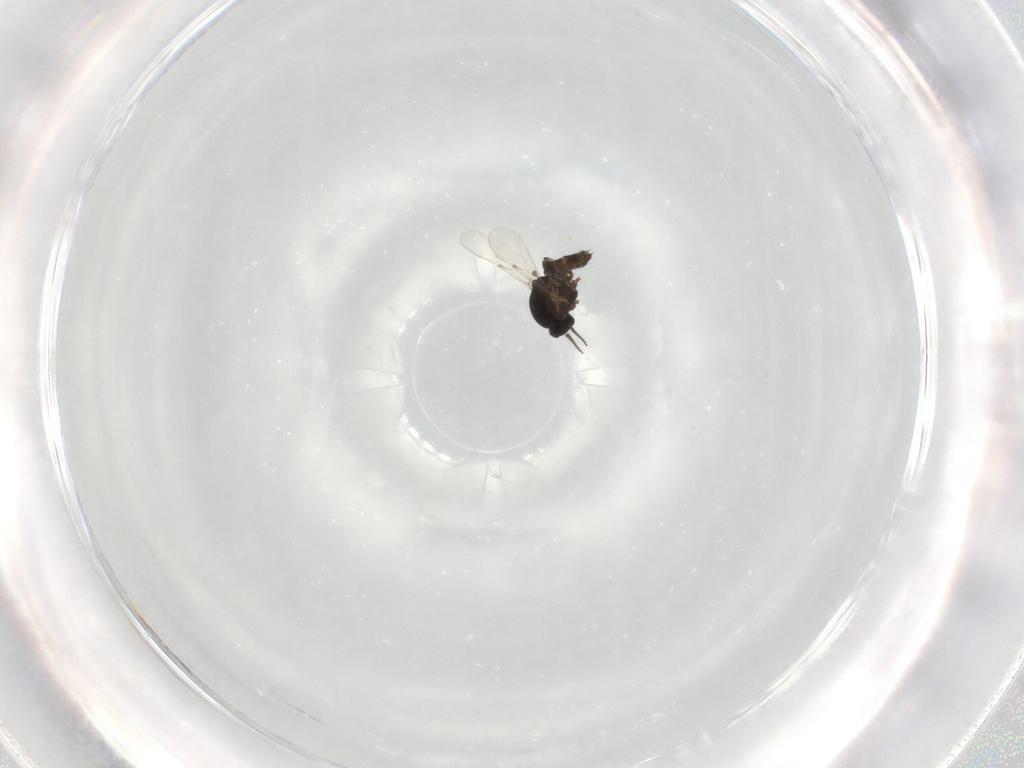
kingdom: Animalia
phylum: Arthropoda
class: Insecta
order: Diptera
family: Ceratopogonidae
